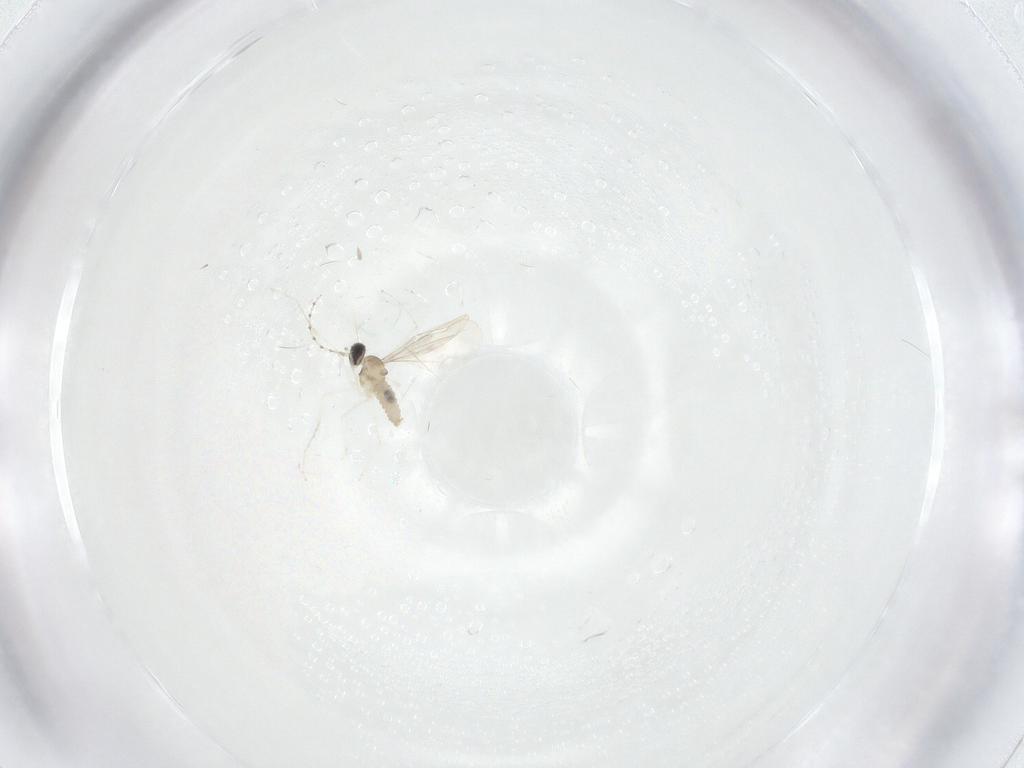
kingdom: Animalia
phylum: Arthropoda
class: Insecta
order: Diptera
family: Cecidomyiidae
